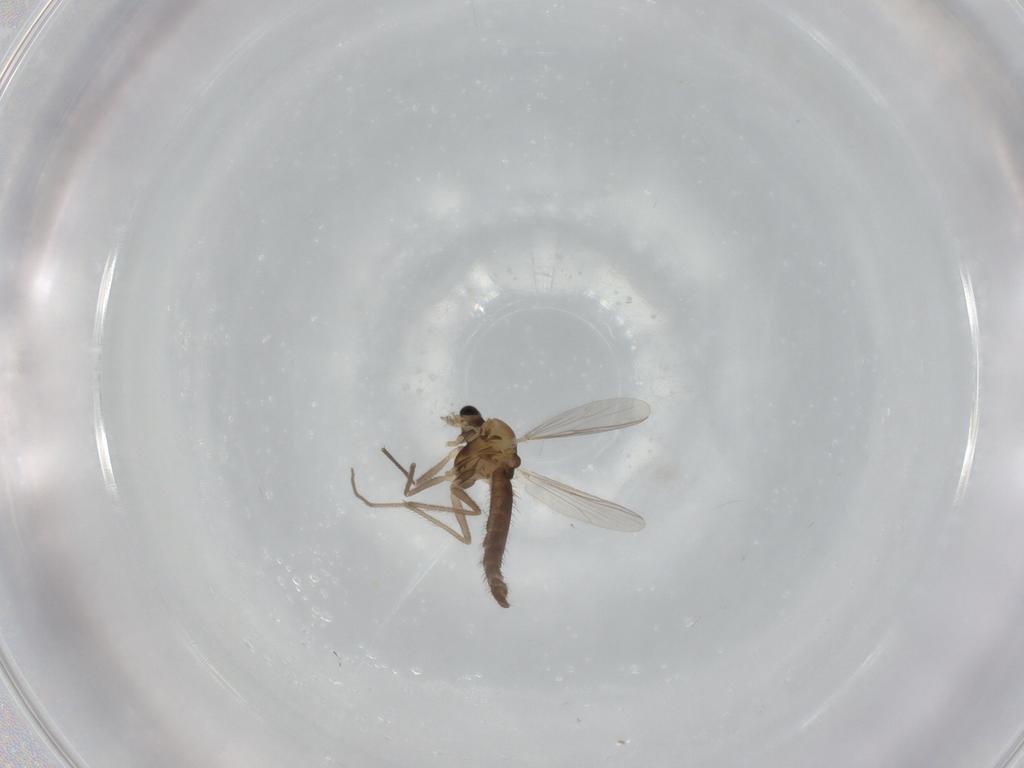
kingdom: Animalia
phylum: Arthropoda
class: Insecta
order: Diptera
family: Chironomidae
